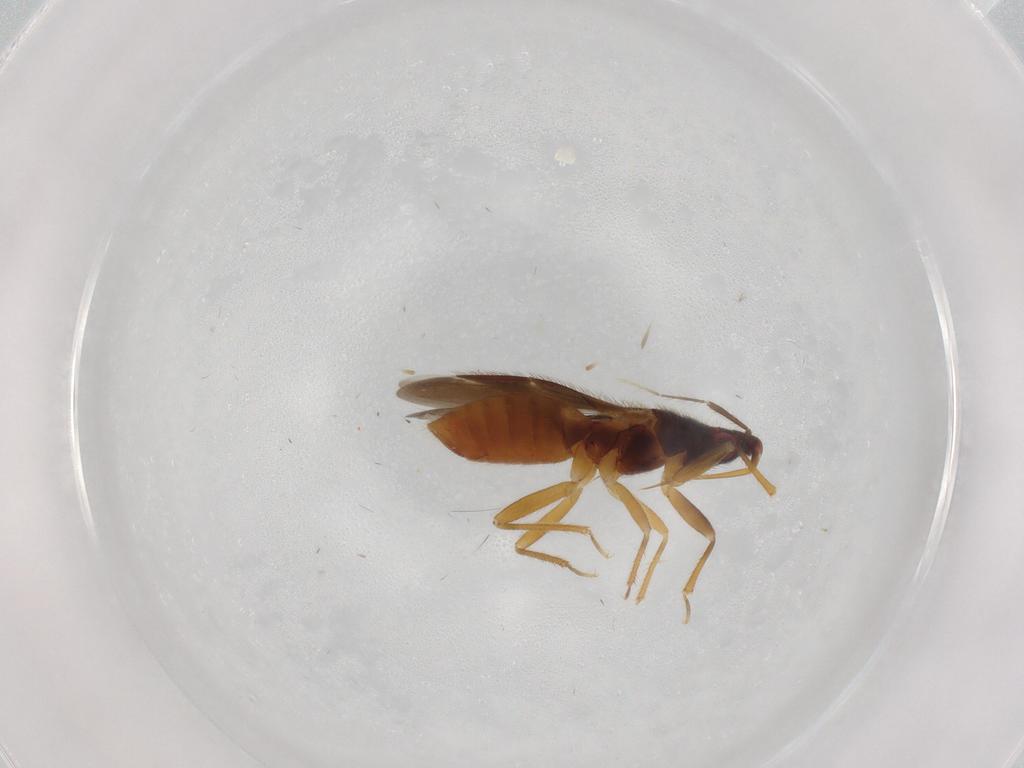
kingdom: Animalia
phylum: Arthropoda
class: Insecta
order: Hemiptera
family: Lasiochilidae
